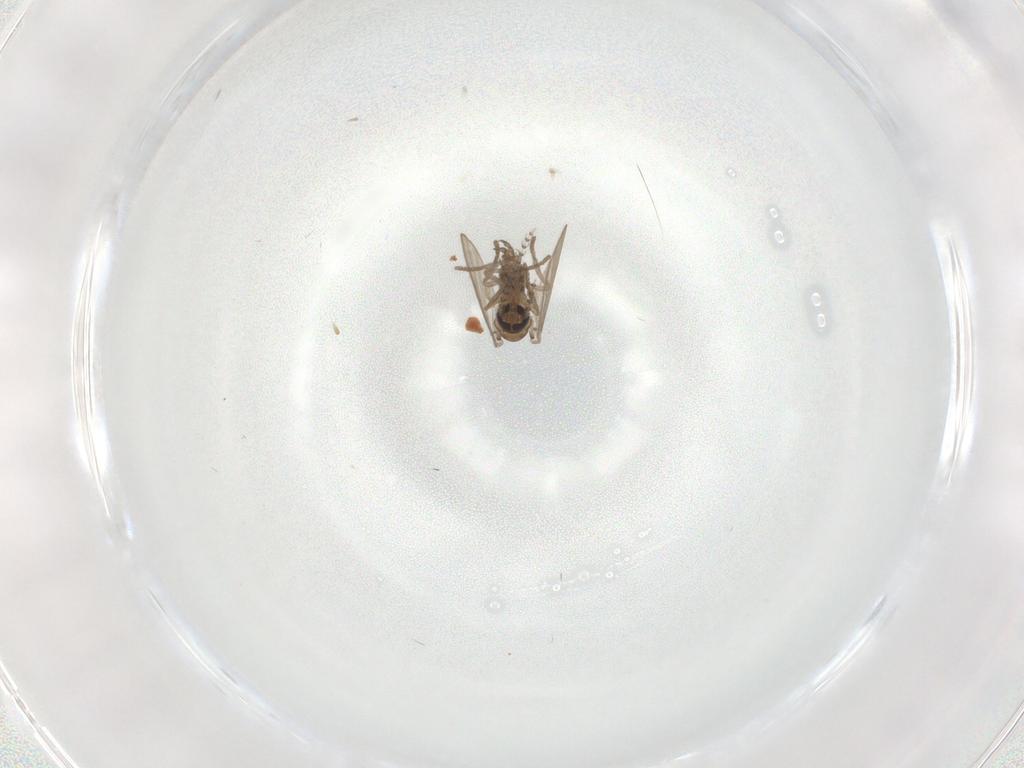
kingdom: Animalia
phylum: Arthropoda
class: Insecta
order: Diptera
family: Psychodidae
